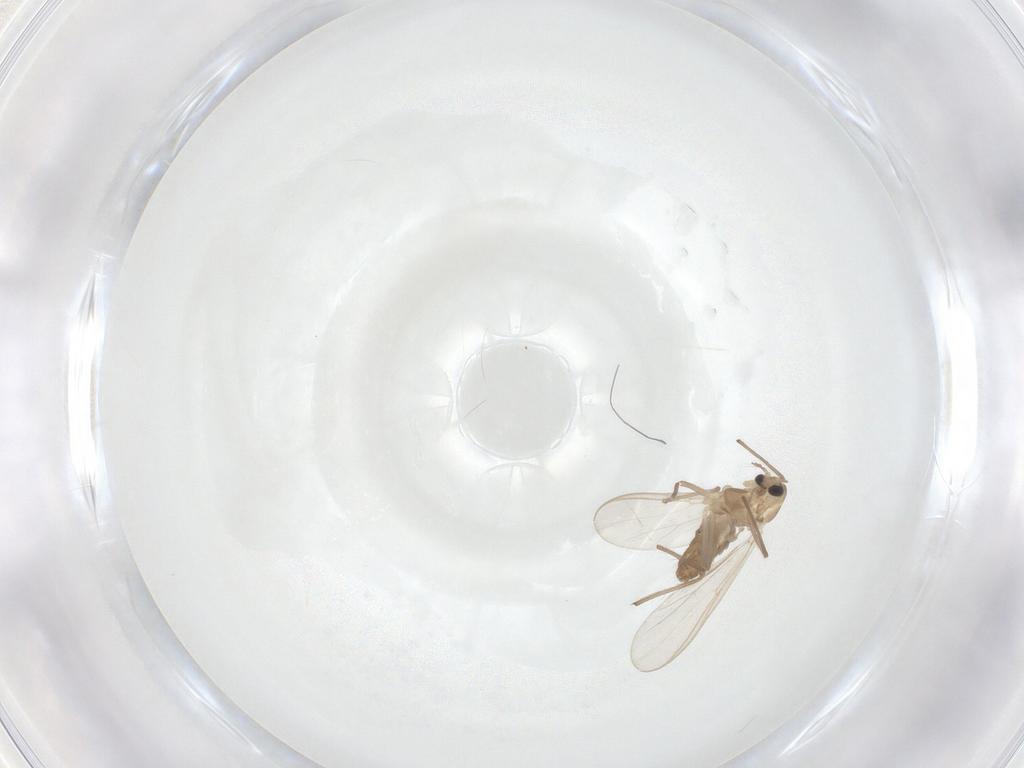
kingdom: Animalia
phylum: Arthropoda
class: Insecta
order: Diptera
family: Chironomidae
